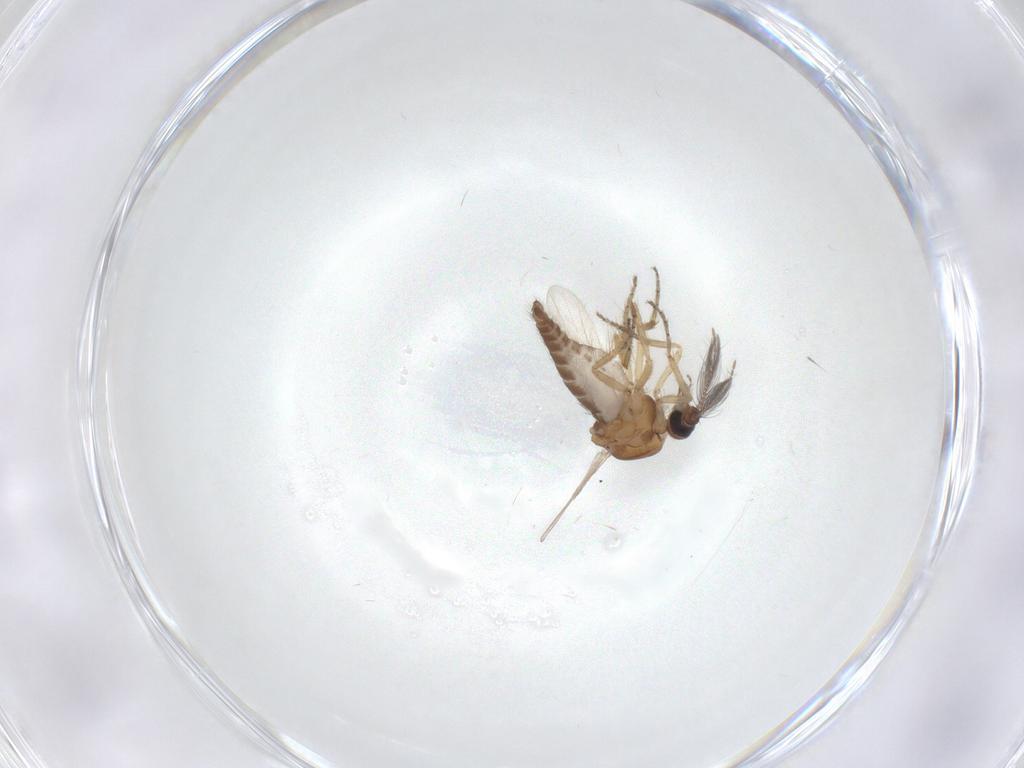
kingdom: Animalia
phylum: Arthropoda
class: Insecta
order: Diptera
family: Ceratopogonidae
